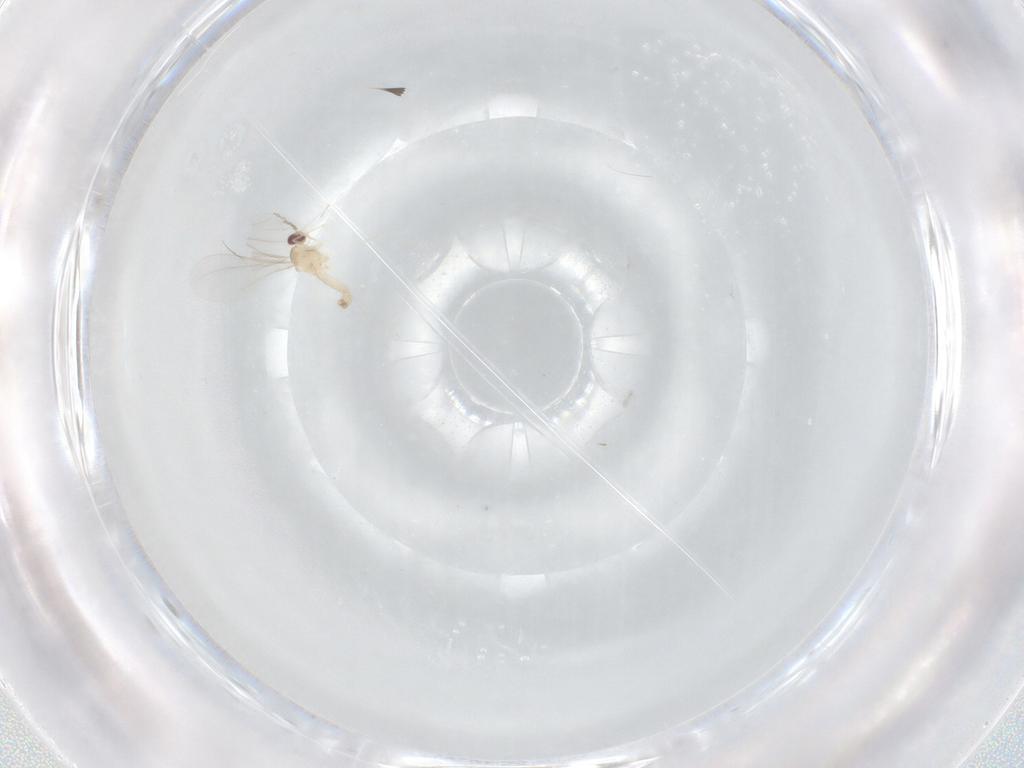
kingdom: Animalia
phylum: Arthropoda
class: Insecta
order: Diptera
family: Cecidomyiidae
